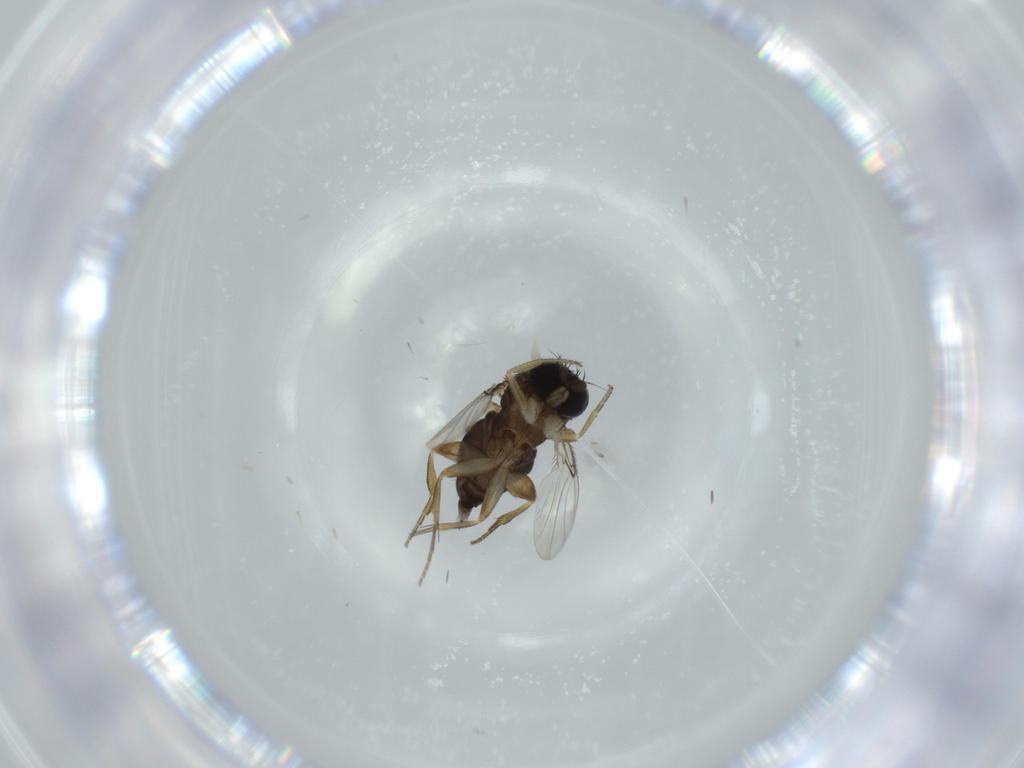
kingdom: Animalia
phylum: Arthropoda
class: Insecta
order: Diptera
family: Phoridae
